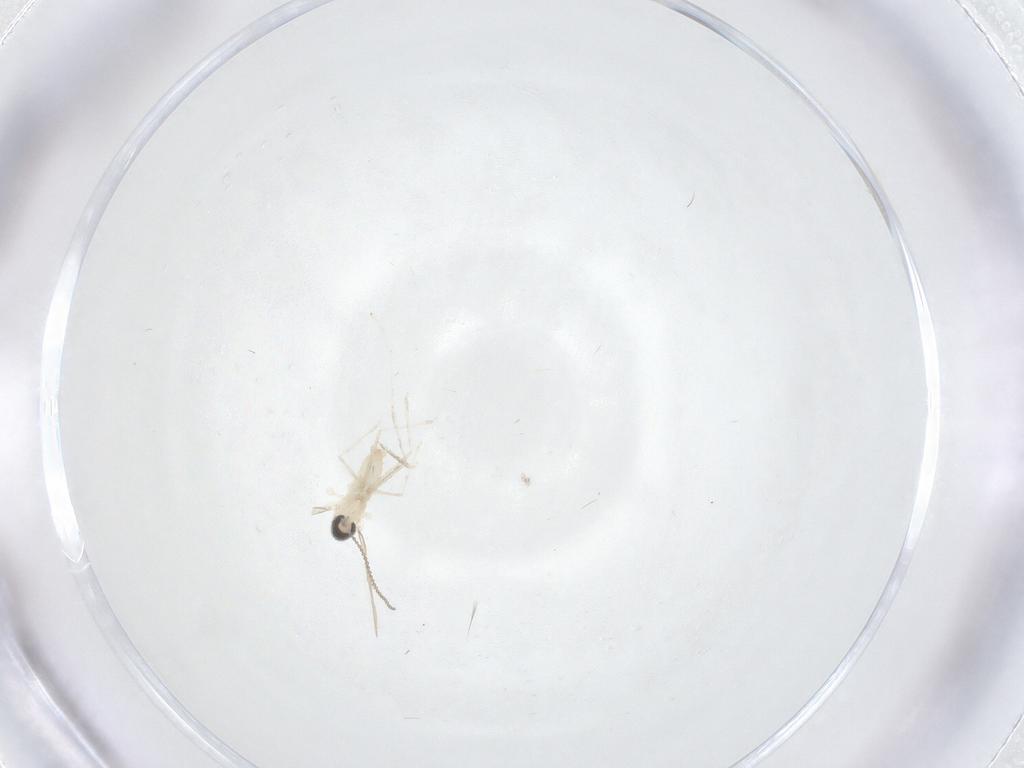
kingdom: Animalia
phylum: Arthropoda
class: Insecta
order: Diptera
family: Cecidomyiidae
